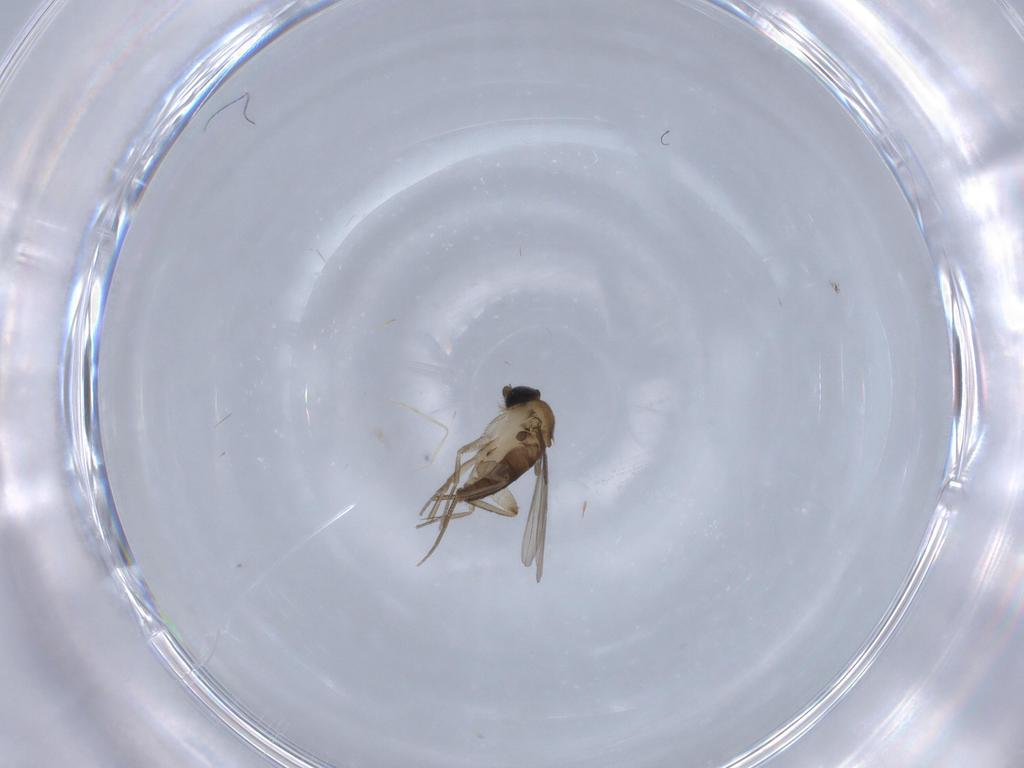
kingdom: Animalia
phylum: Arthropoda
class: Insecta
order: Diptera
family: Phoridae
